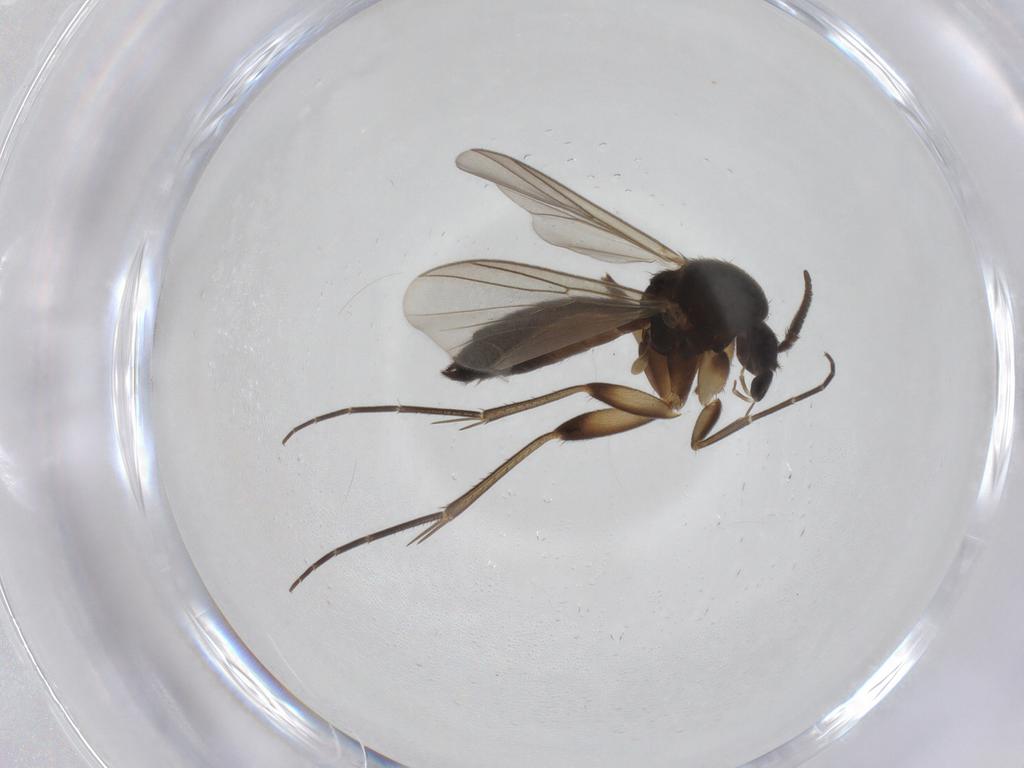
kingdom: Animalia
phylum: Arthropoda
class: Insecta
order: Diptera
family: Mycetophilidae
